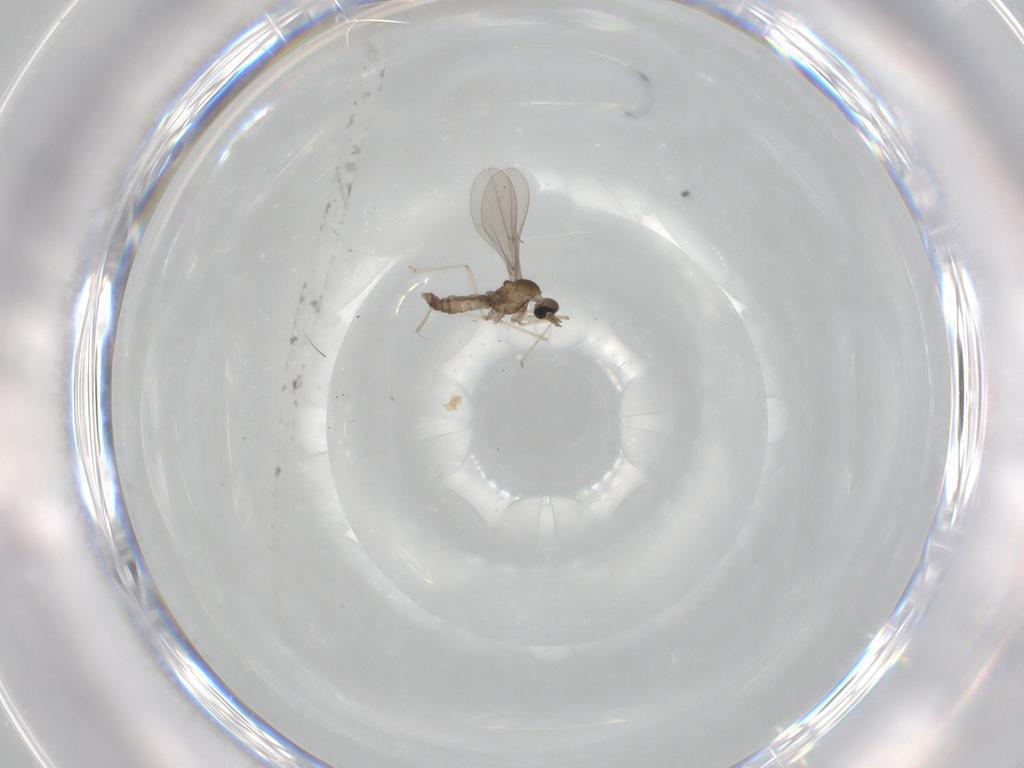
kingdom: Animalia
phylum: Arthropoda
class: Insecta
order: Diptera
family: Cecidomyiidae
